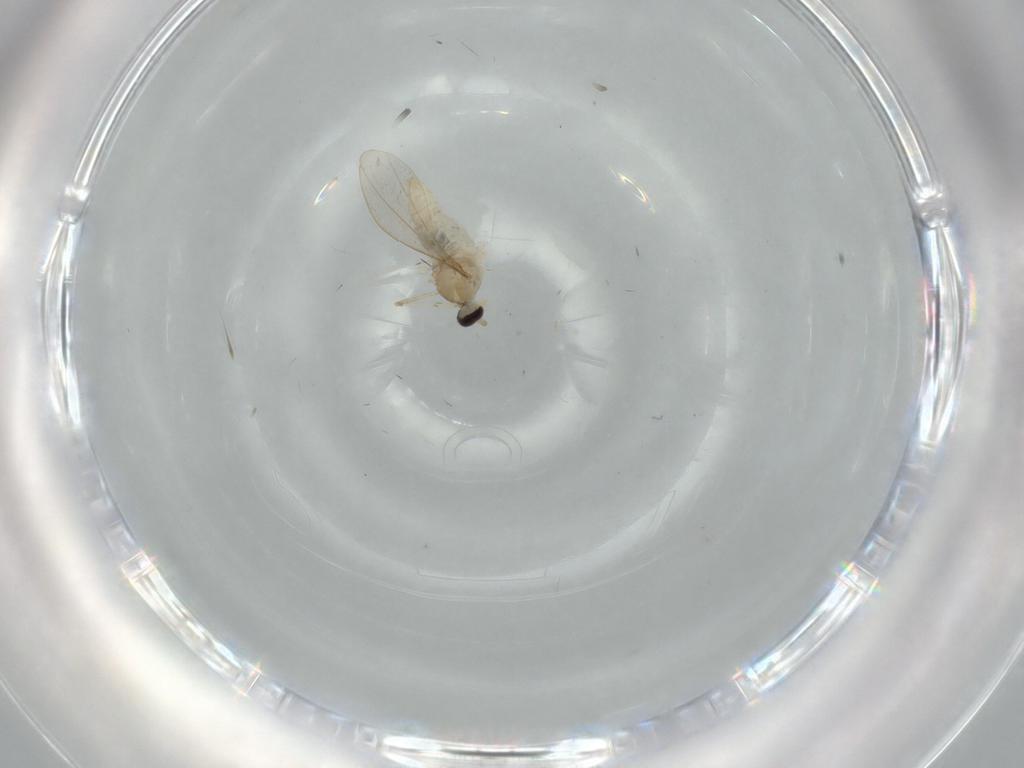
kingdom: Animalia
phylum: Arthropoda
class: Insecta
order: Diptera
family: Cecidomyiidae
